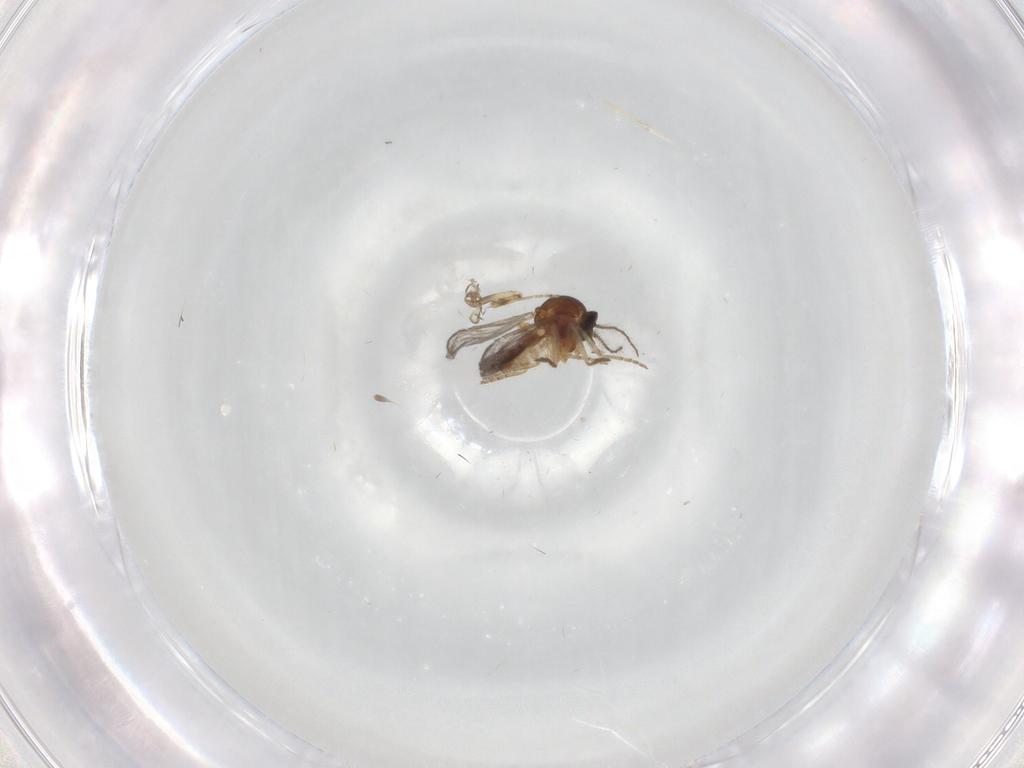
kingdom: Animalia
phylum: Arthropoda
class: Insecta
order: Diptera
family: Ceratopogonidae
